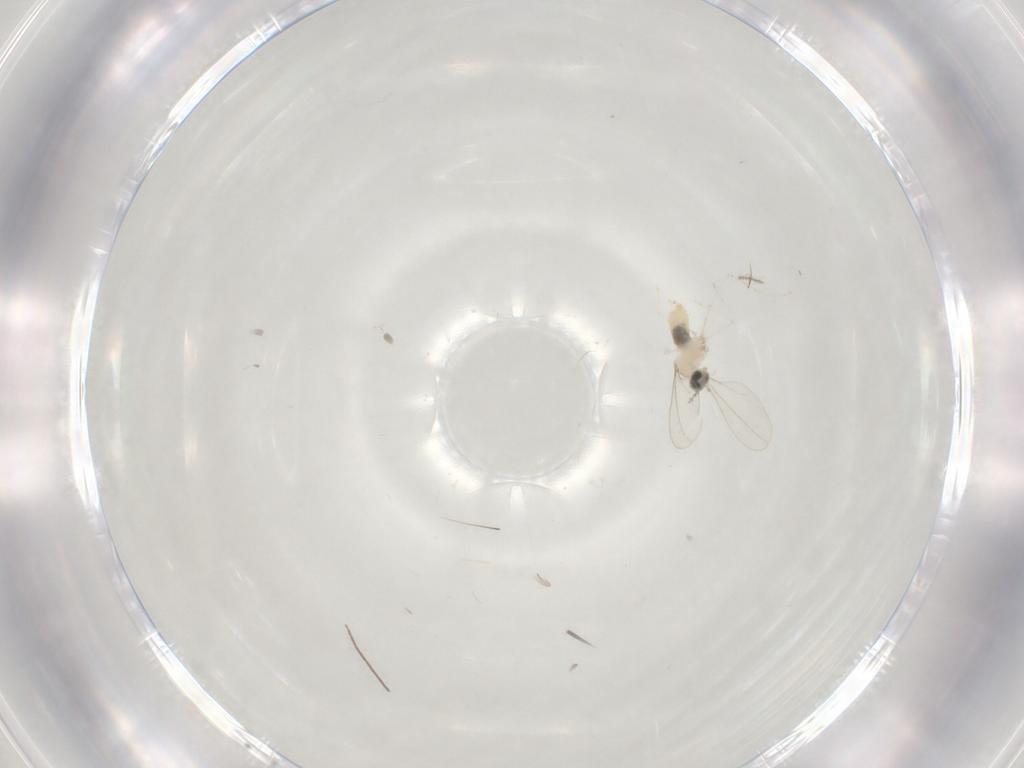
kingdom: Animalia
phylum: Arthropoda
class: Insecta
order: Diptera
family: Cecidomyiidae
